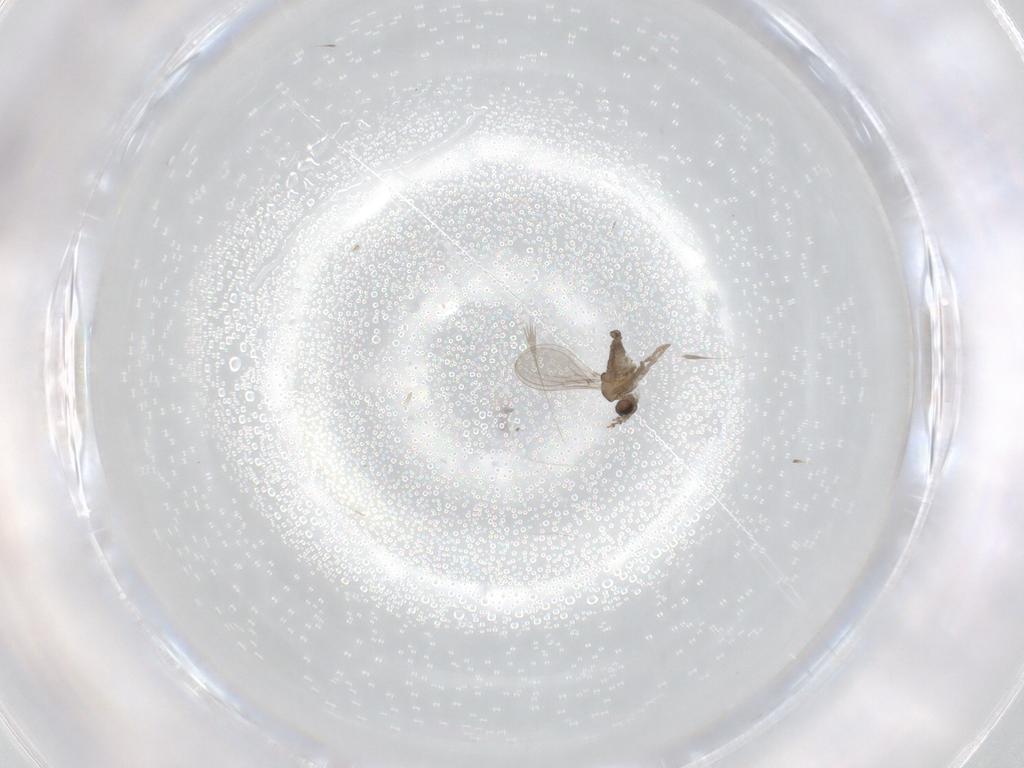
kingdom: Animalia
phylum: Arthropoda
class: Insecta
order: Diptera
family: Cecidomyiidae
